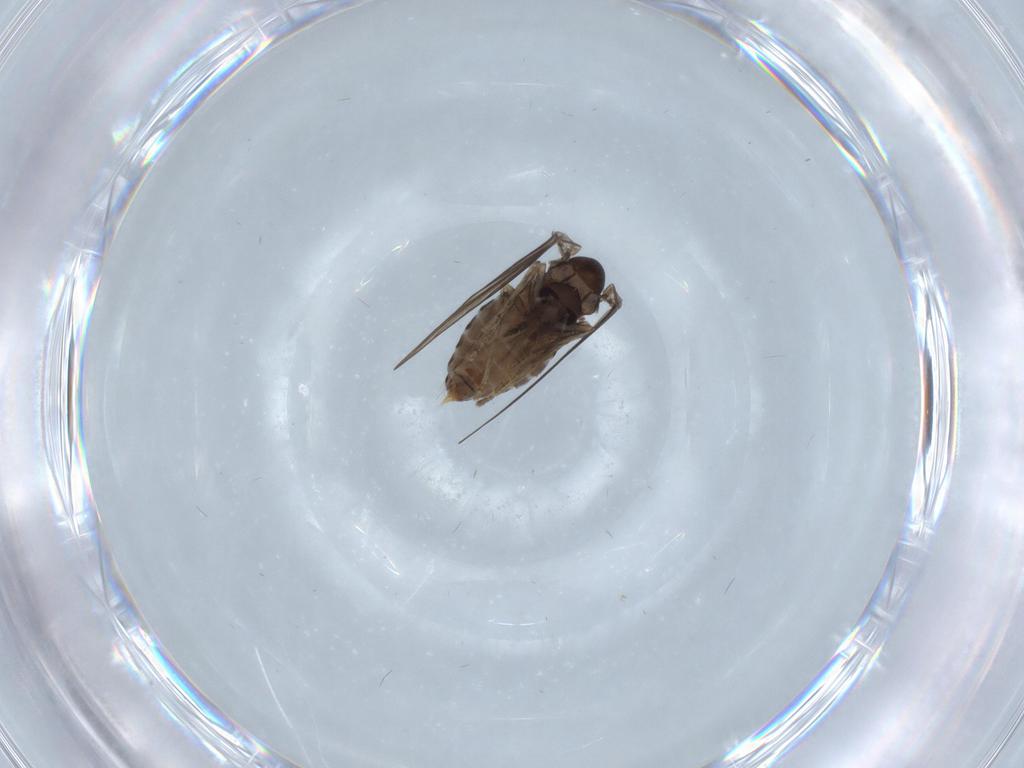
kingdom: Animalia
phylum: Arthropoda
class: Insecta
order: Diptera
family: Psychodidae
